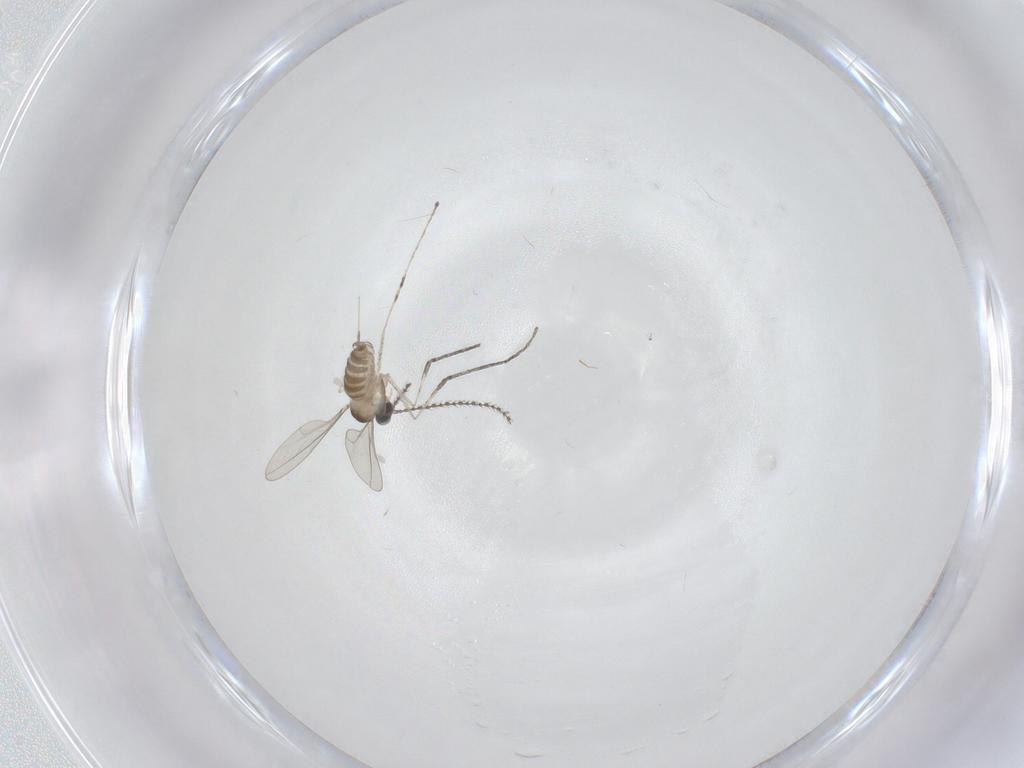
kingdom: Animalia
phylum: Arthropoda
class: Insecta
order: Diptera
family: Cecidomyiidae
